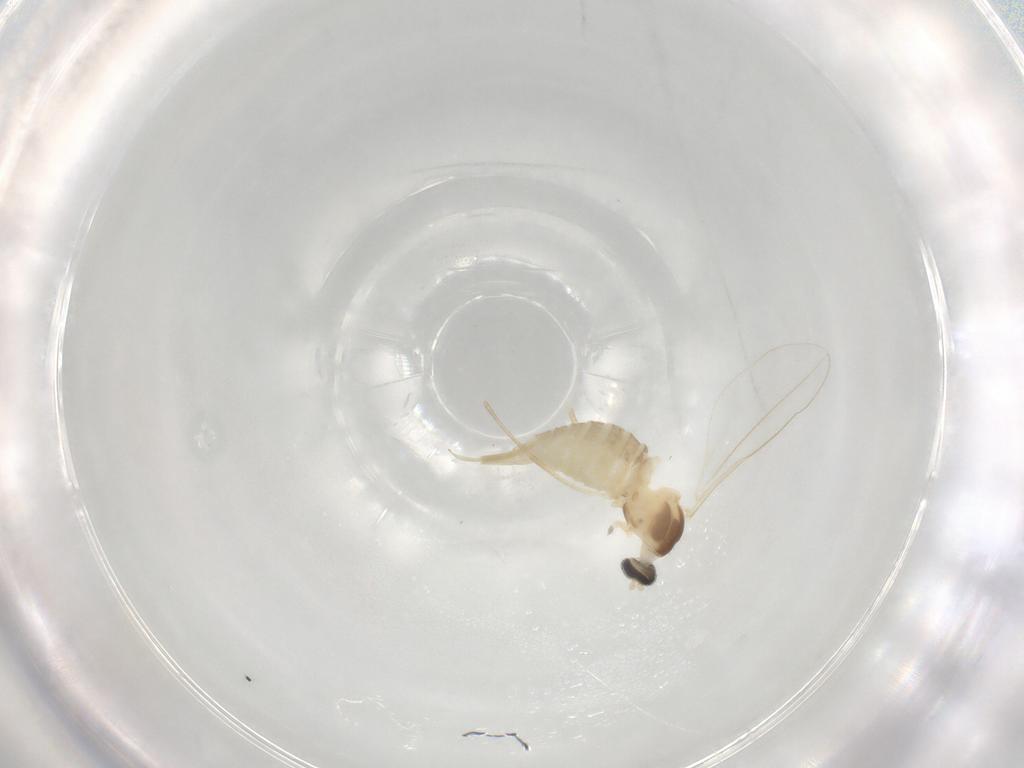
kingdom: Animalia
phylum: Arthropoda
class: Insecta
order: Diptera
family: Cecidomyiidae
